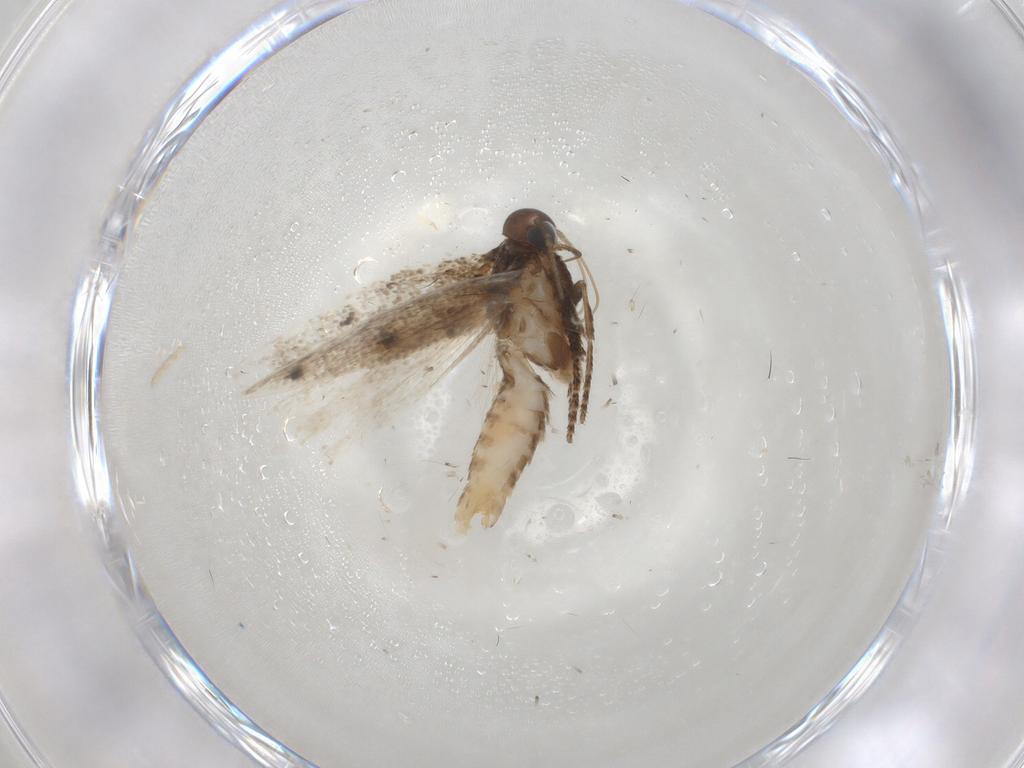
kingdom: Animalia
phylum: Arthropoda
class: Insecta
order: Lepidoptera
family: Gelechiidae
